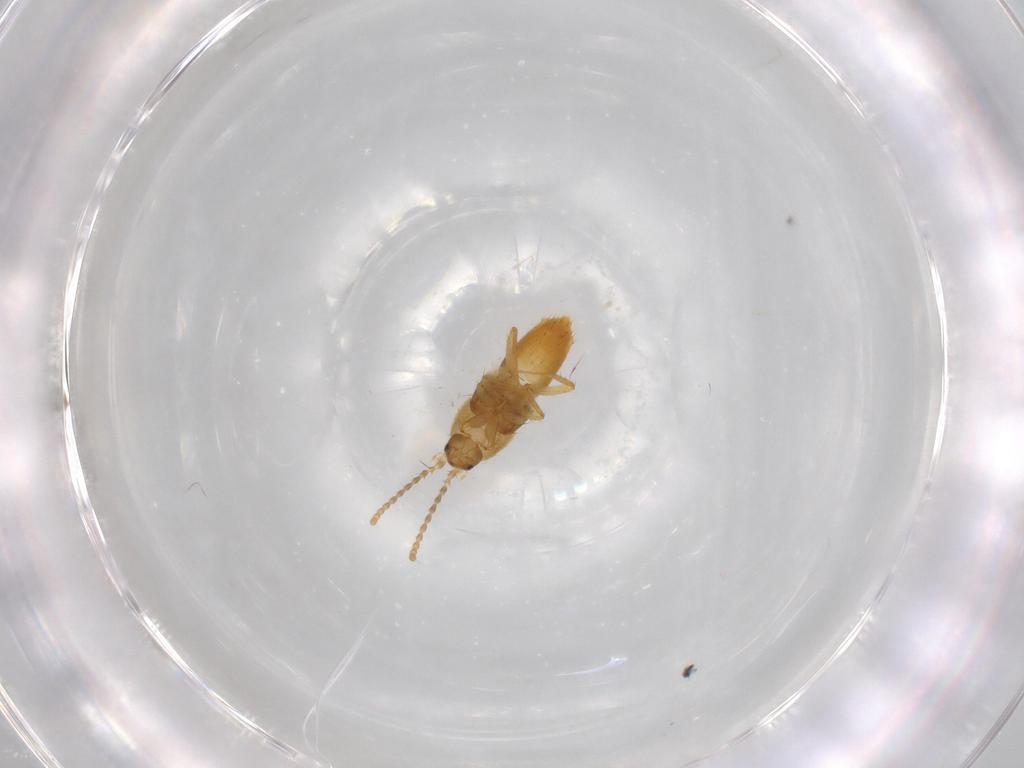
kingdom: Animalia
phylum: Arthropoda
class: Insecta
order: Coleoptera
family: Staphylinidae
